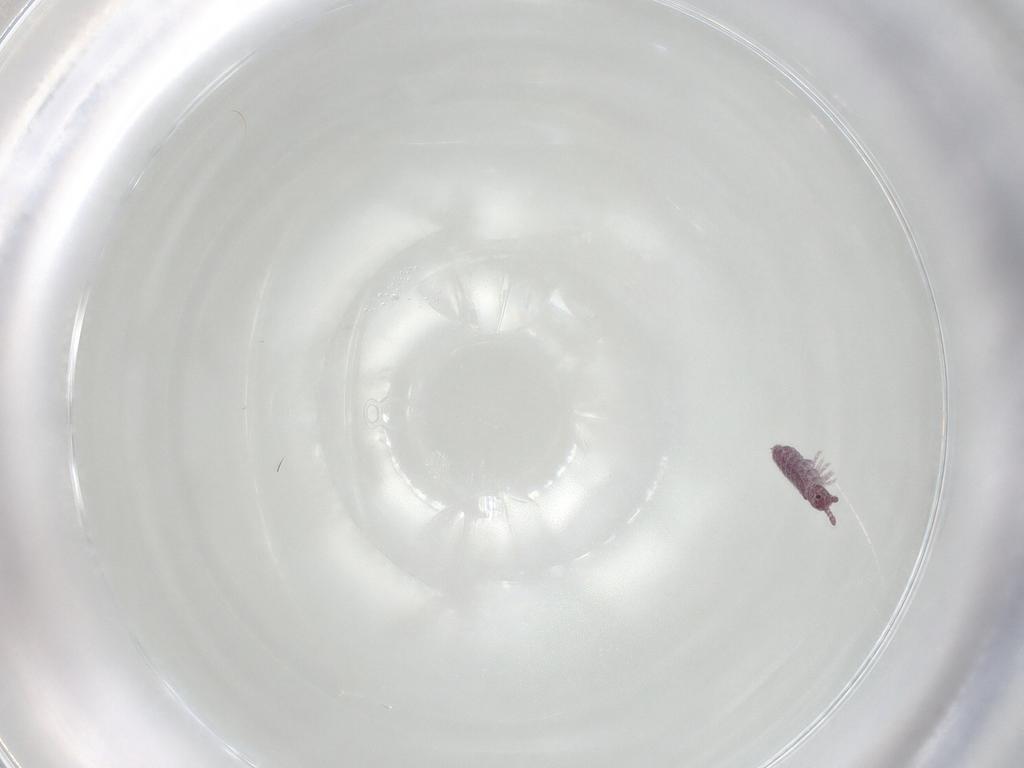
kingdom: Animalia
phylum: Arthropoda
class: Collembola
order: Poduromorpha
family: Hypogastruridae
